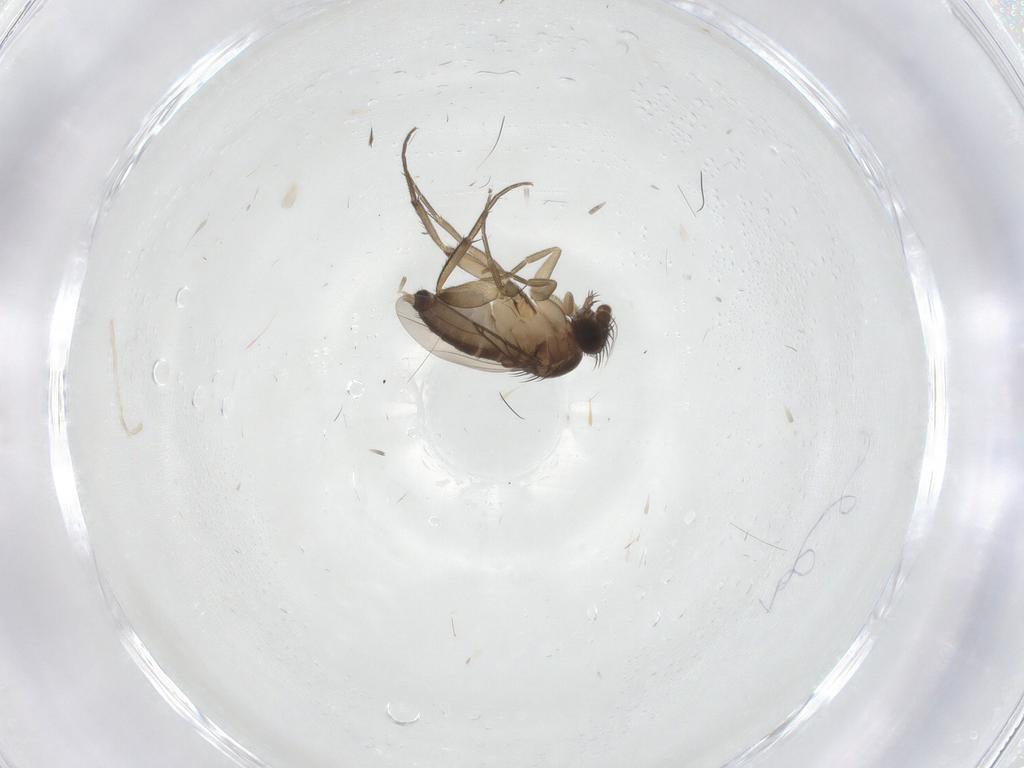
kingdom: Animalia
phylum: Arthropoda
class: Insecta
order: Diptera
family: Phoridae
